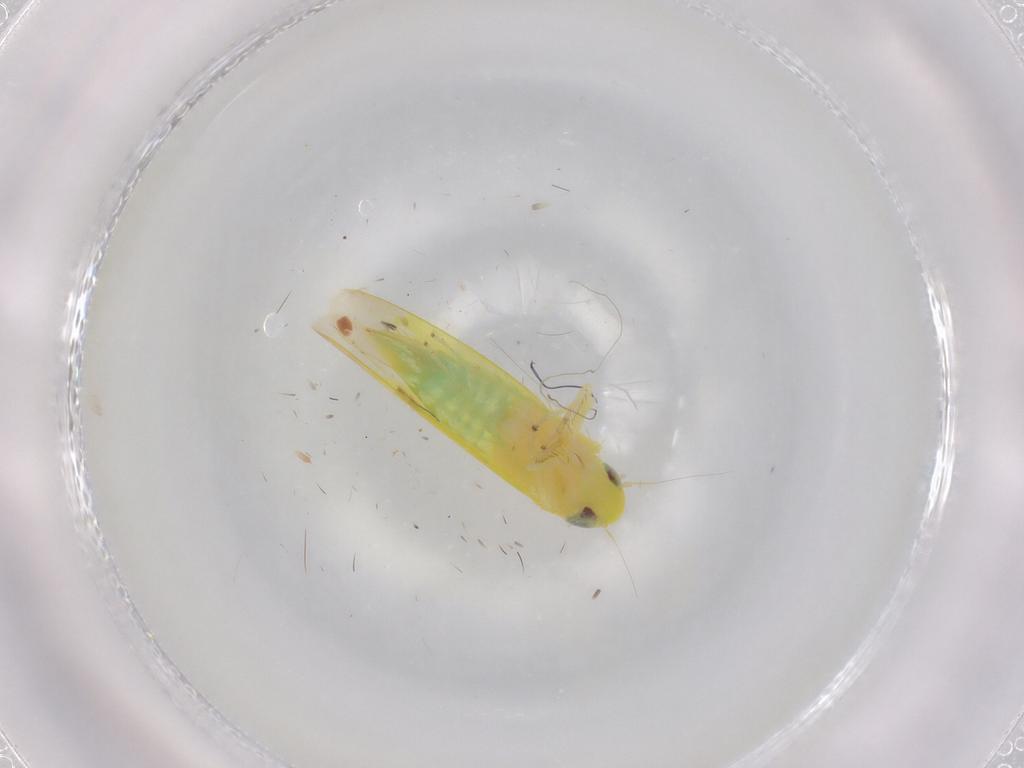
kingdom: Animalia
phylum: Arthropoda
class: Insecta
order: Hemiptera
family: Cicadellidae
